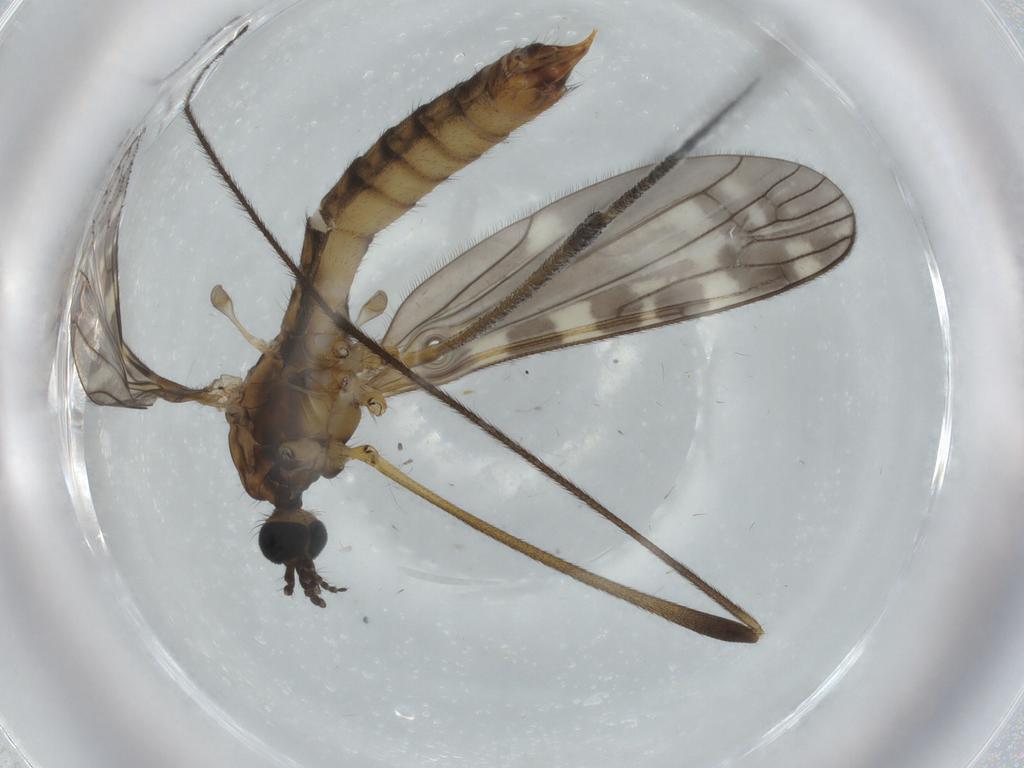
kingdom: Animalia
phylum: Arthropoda
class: Insecta
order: Diptera
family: Limoniidae
